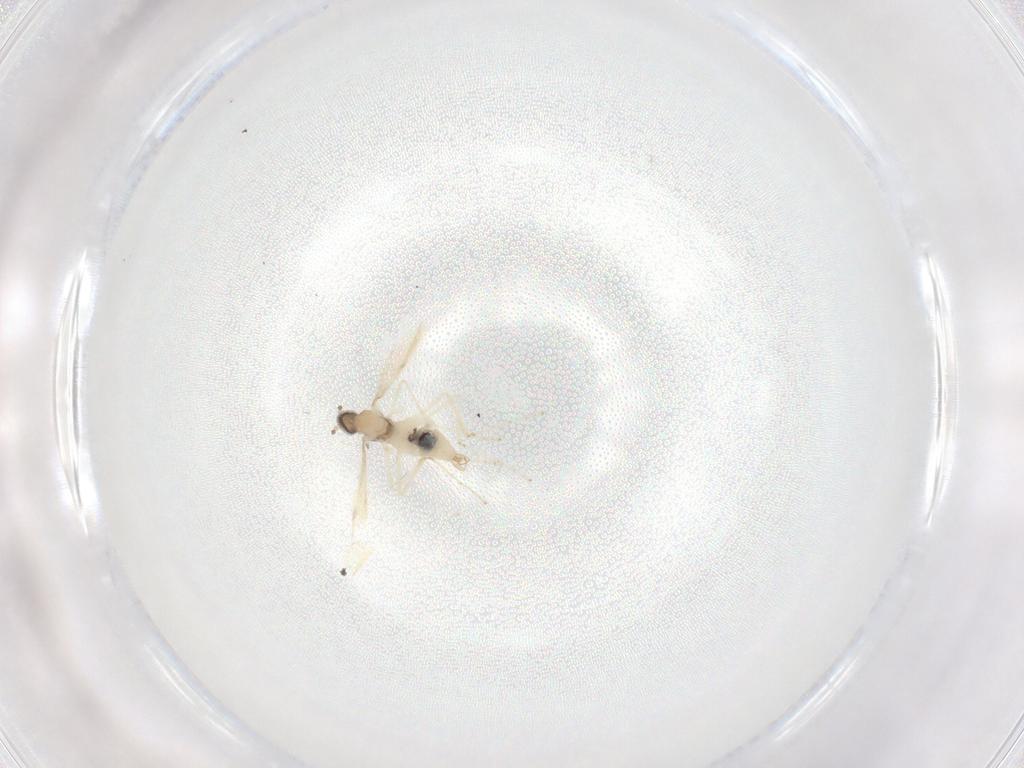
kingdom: Animalia
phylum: Arthropoda
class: Insecta
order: Diptera
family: Cecidomyiidae
